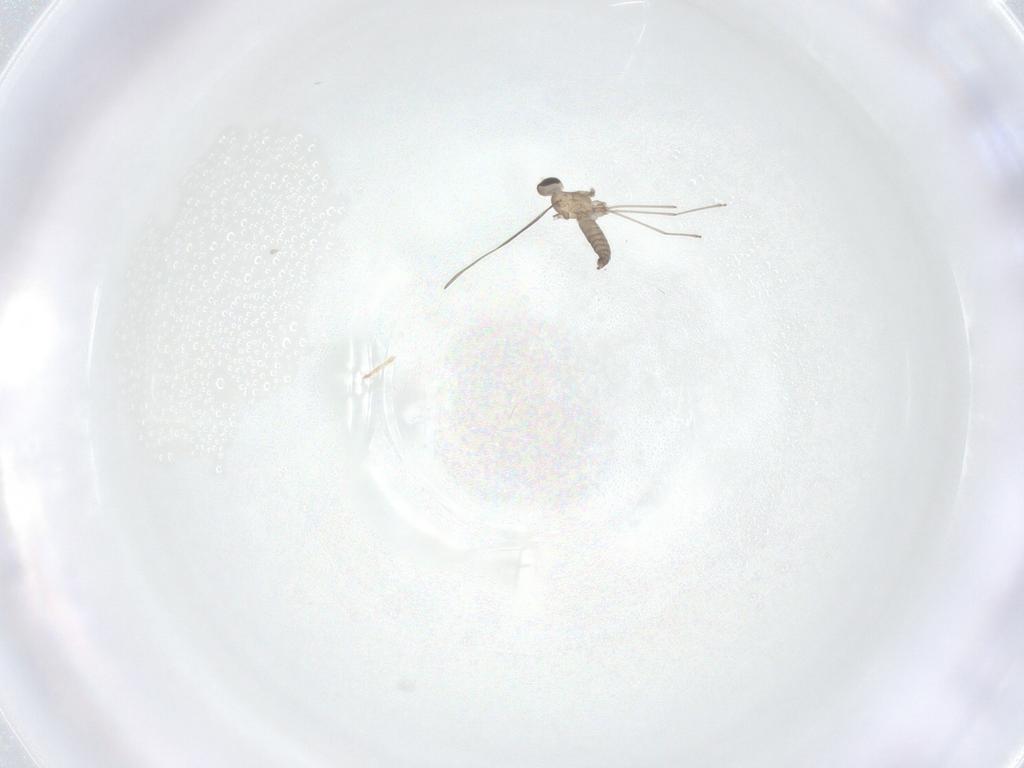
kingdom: Animalia
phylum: Arthropoda
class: Insecta
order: Diptera
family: Cecidomyiidae
